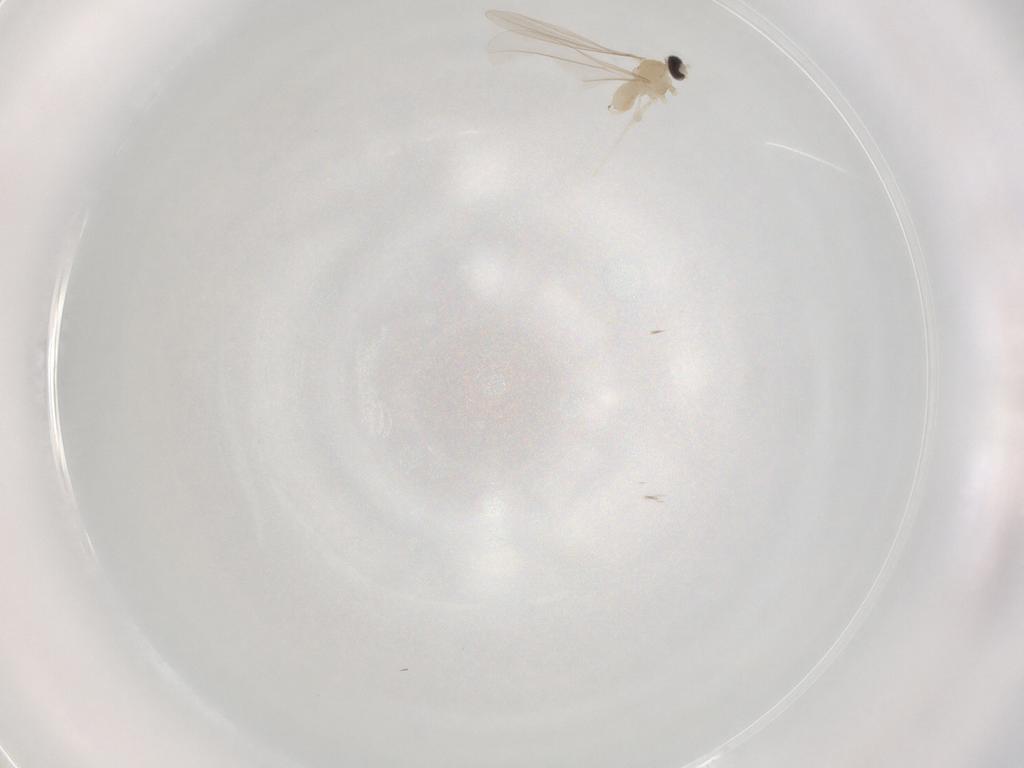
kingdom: Animalia
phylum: Arthropoda
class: Insecta
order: Diptera
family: Cecidomyiidae
